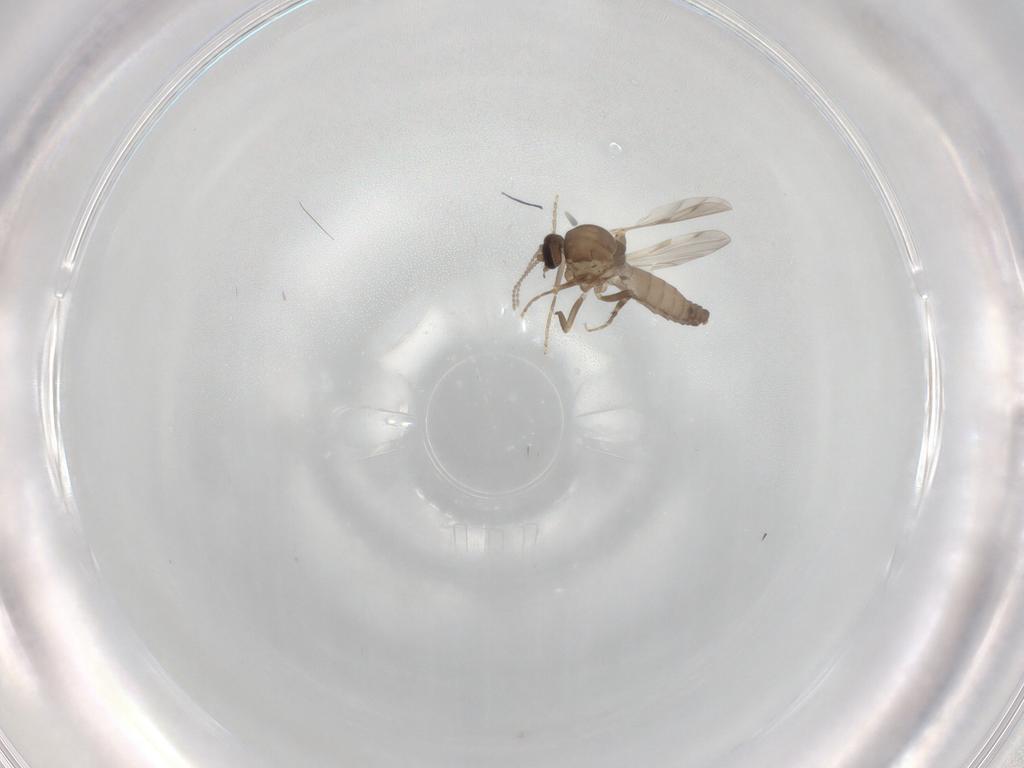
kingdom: Animalia
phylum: Arthropoda
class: Insecta
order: Diptera
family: Ceratopogonidae
